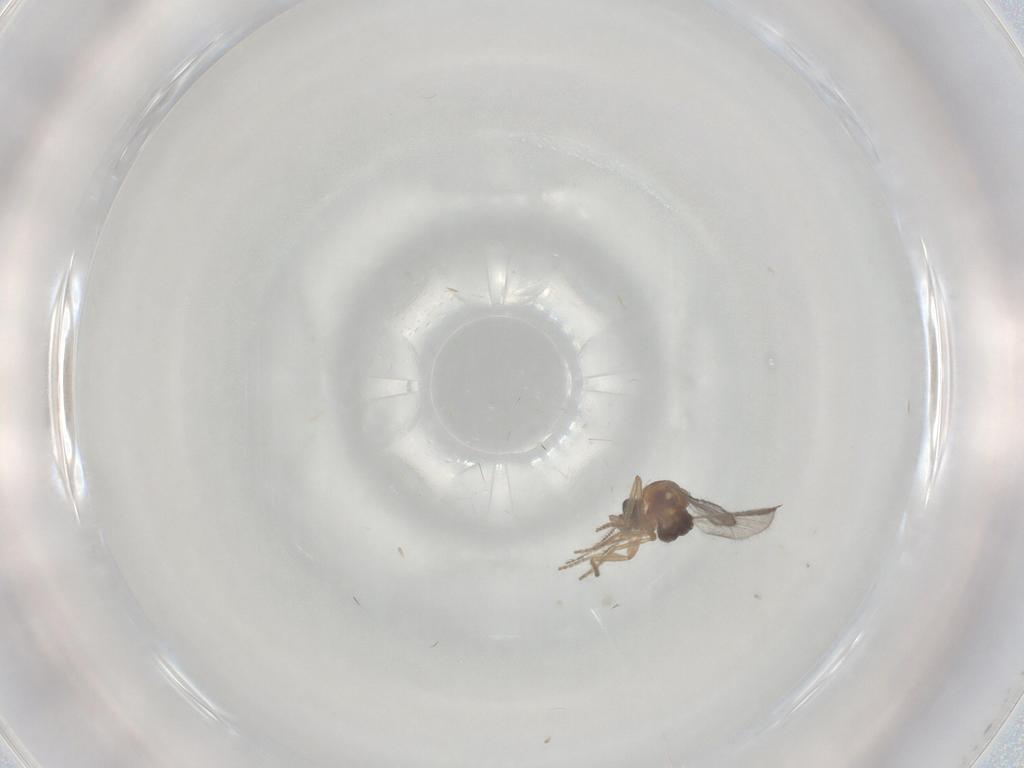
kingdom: Animalia
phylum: Arthropoda
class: Insecta
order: Diptera
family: Ceratopogonidae
